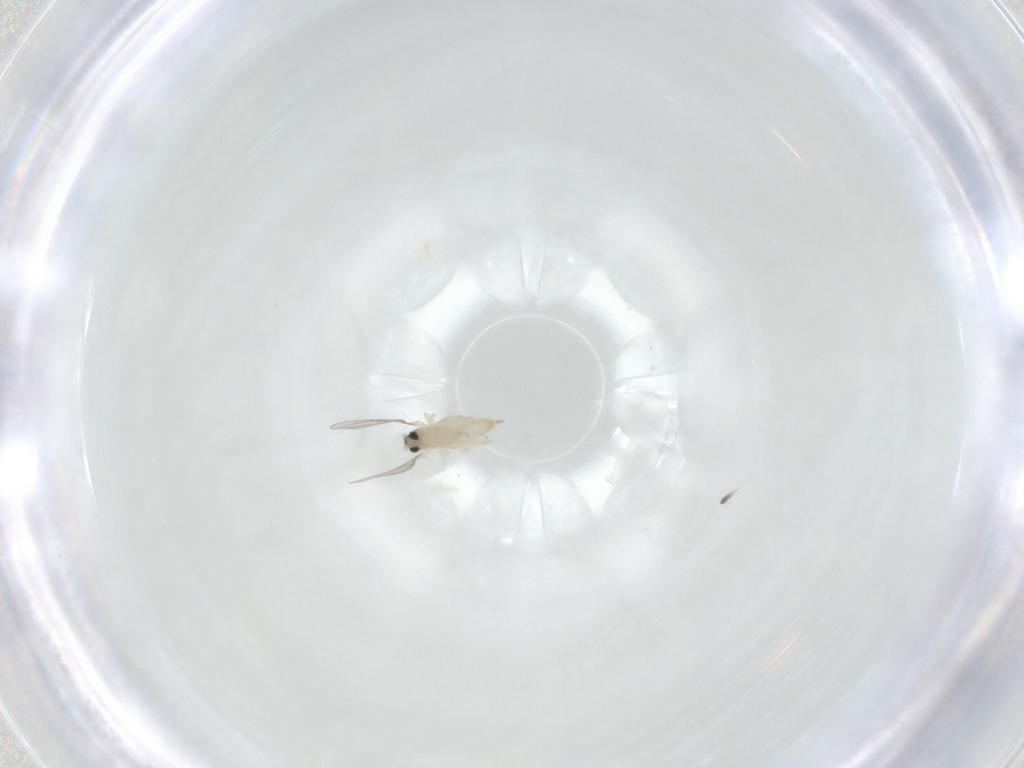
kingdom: Animalia
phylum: Arthropoda
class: Insecta
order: Diptera
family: Cecidomyiidae
